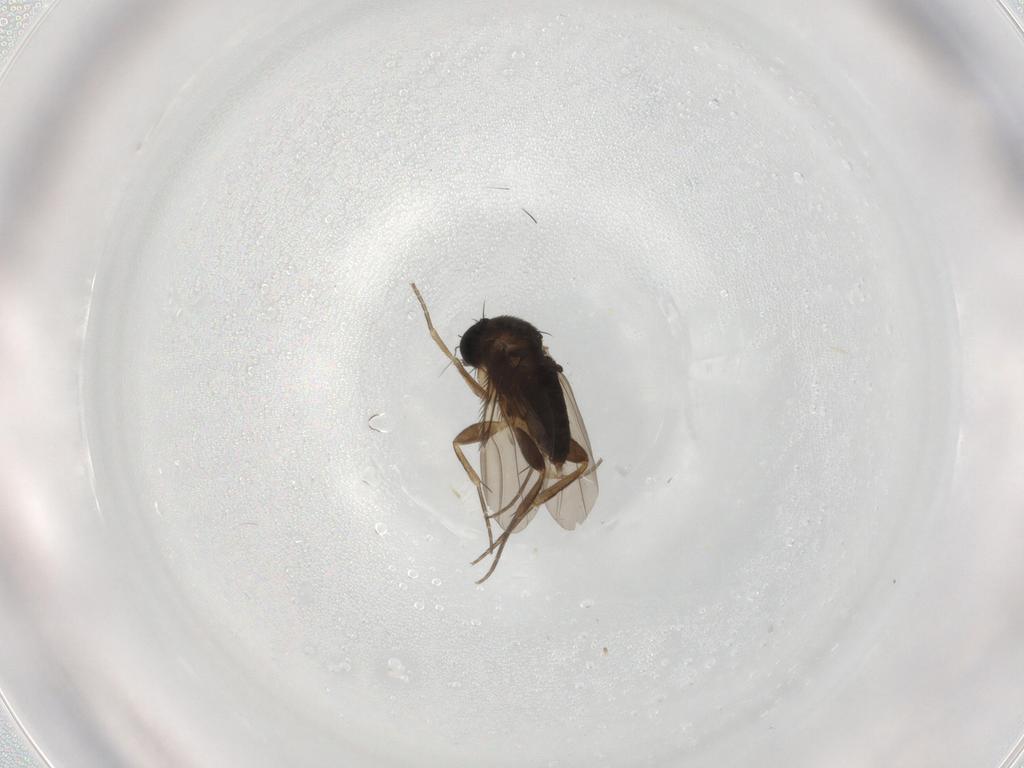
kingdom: Animalia
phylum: Arthropoda
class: Insecta
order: Diptera
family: Phoridae
